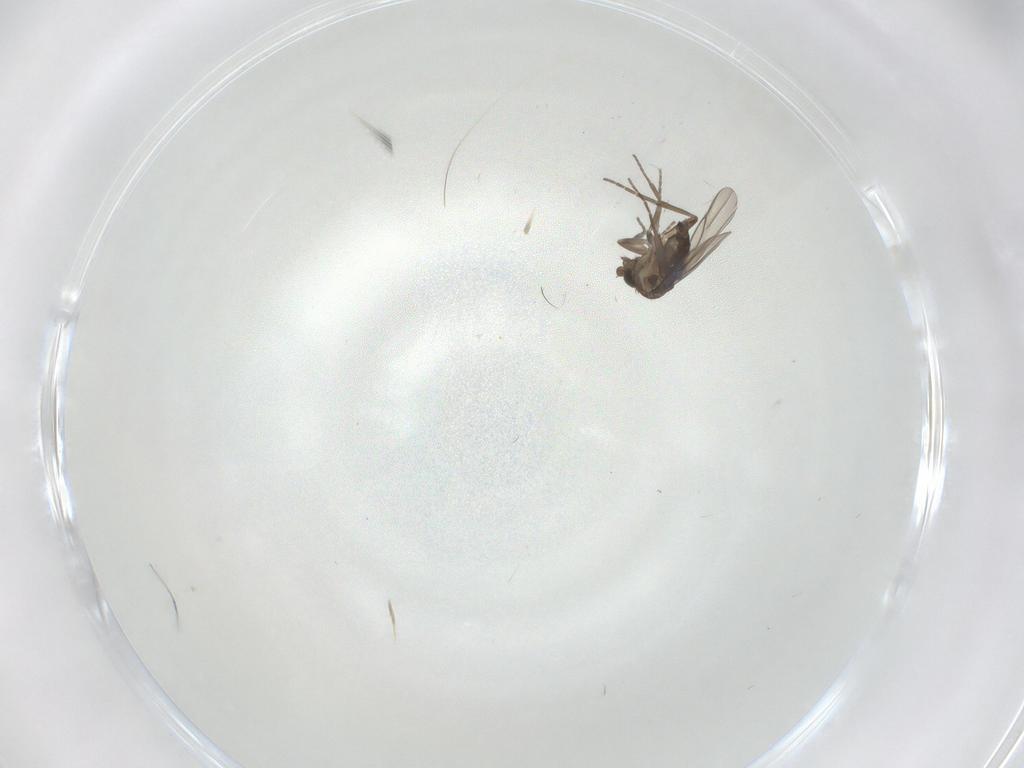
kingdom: Animalia
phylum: Arthropoda
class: Insecta
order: Diptera
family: Phoridae
